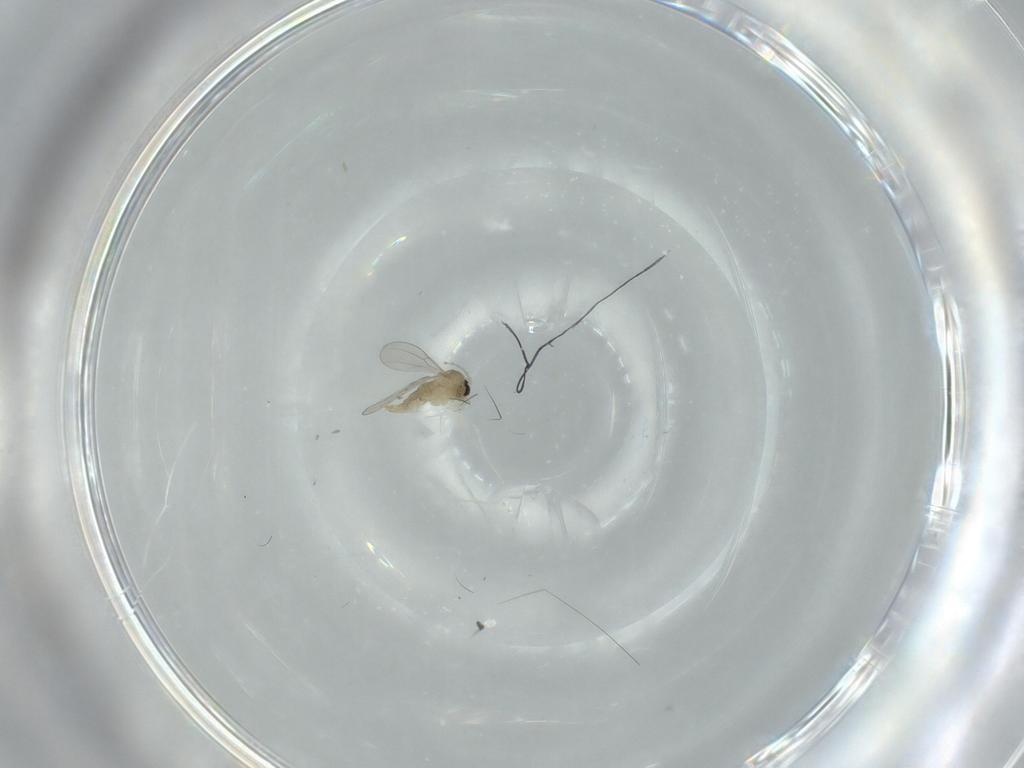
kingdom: Animalia
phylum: Arthropoda
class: Insecta
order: Diptera
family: Cecidomyiidae
